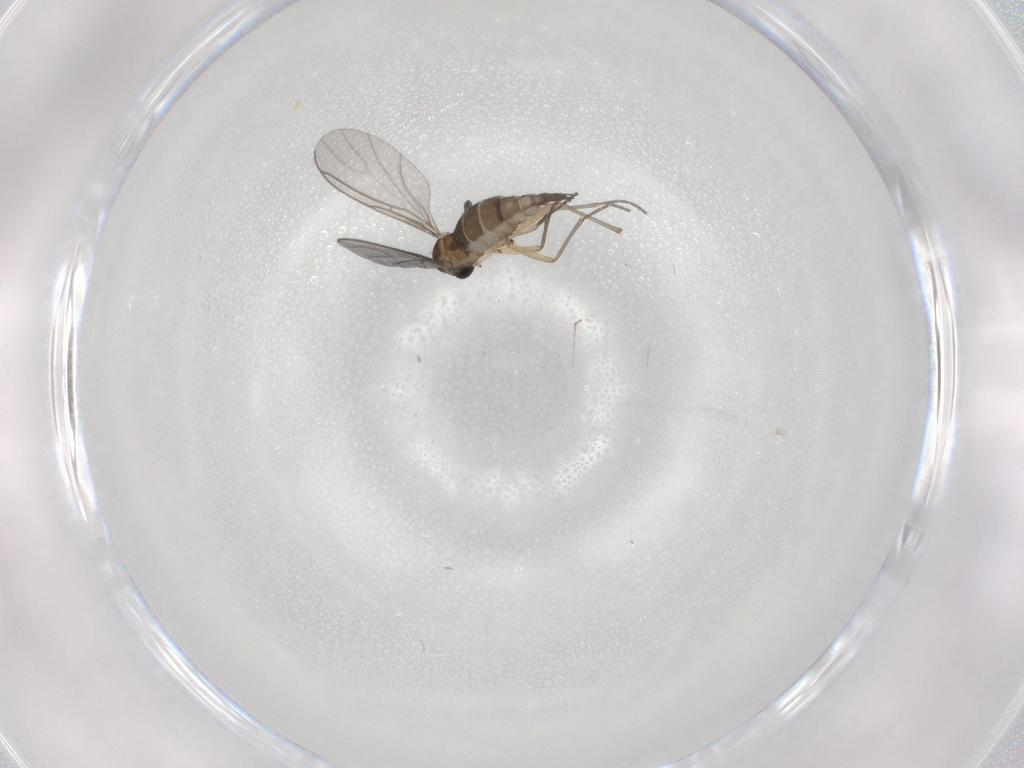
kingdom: Animalia
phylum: Arthropoda
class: Insecta
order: Diptera
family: Sciaridae
